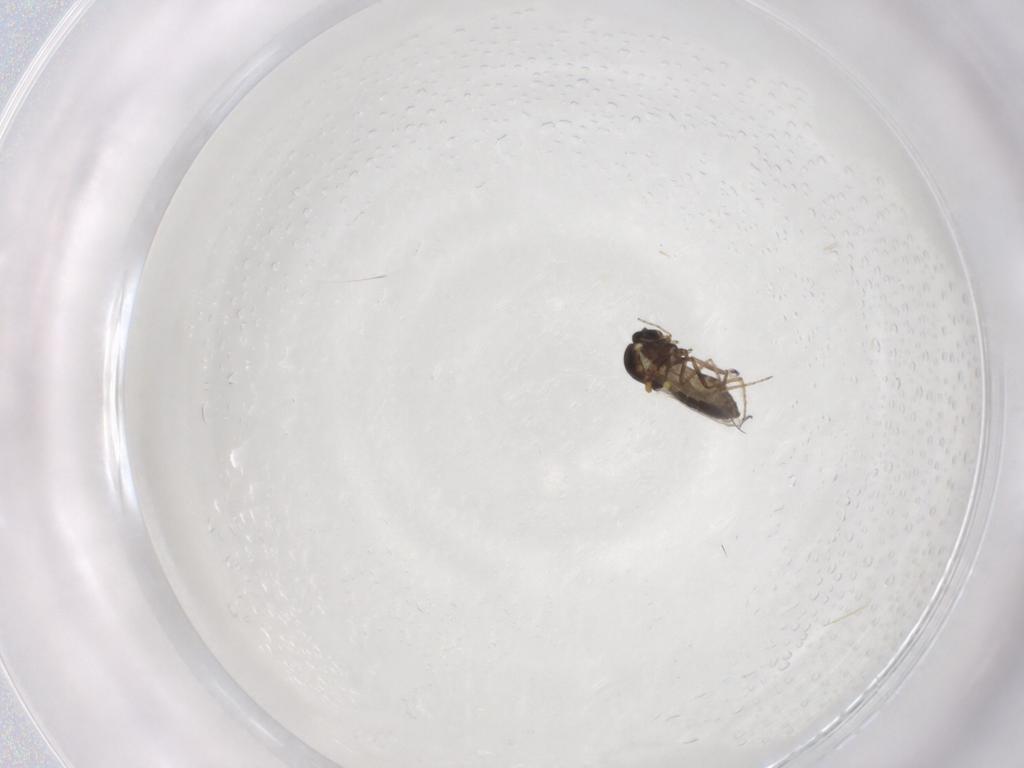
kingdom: Animalia
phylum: Arthropoda
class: Insecta
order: Diptera
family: Ceratopogonidae
